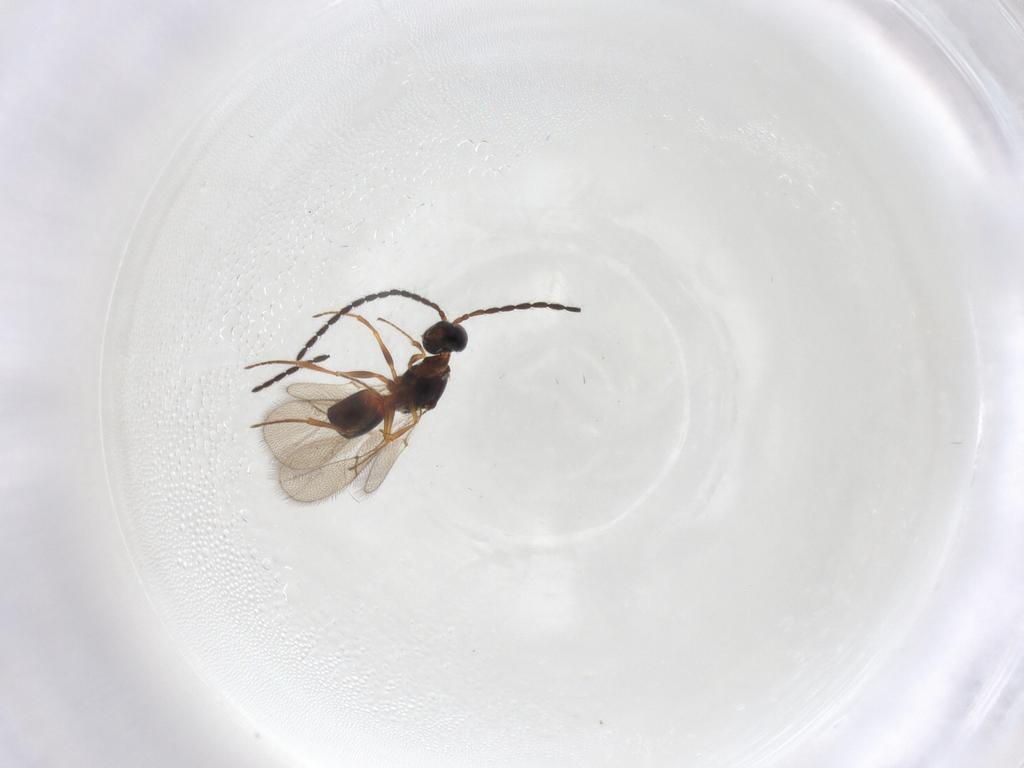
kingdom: Animalia
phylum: Arthropoda
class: Insecta
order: Hymenoptera
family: Figitidae
